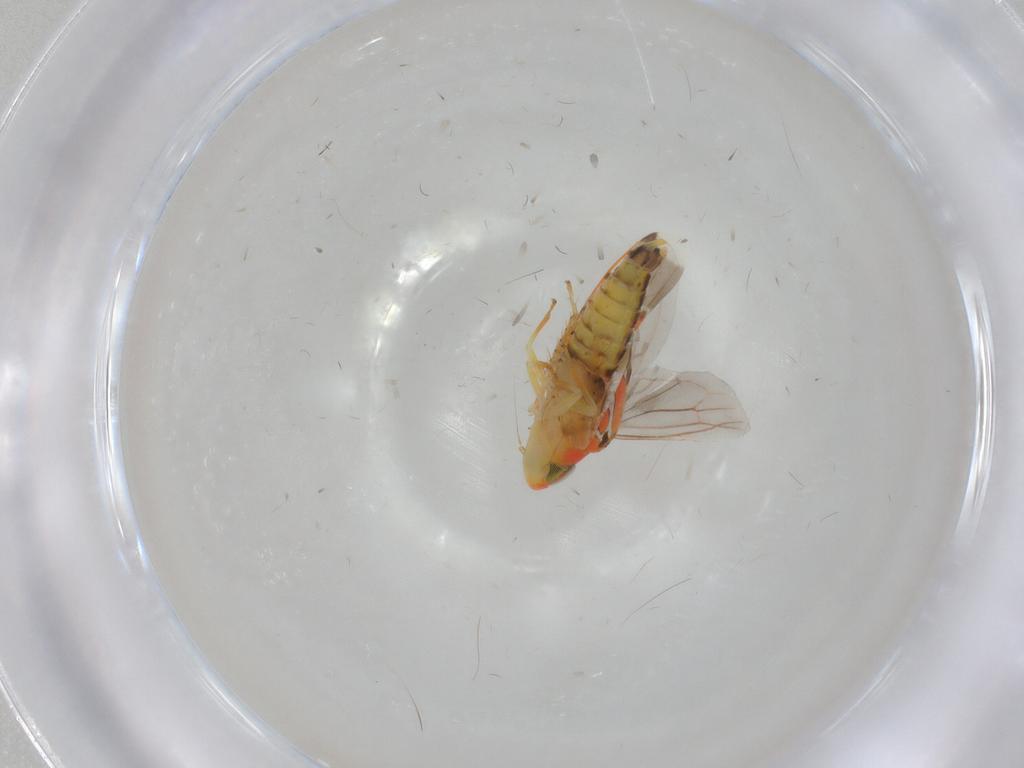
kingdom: Animalia
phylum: Arthropoda
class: Insecta
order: Hemiptera
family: Cicadellidae
